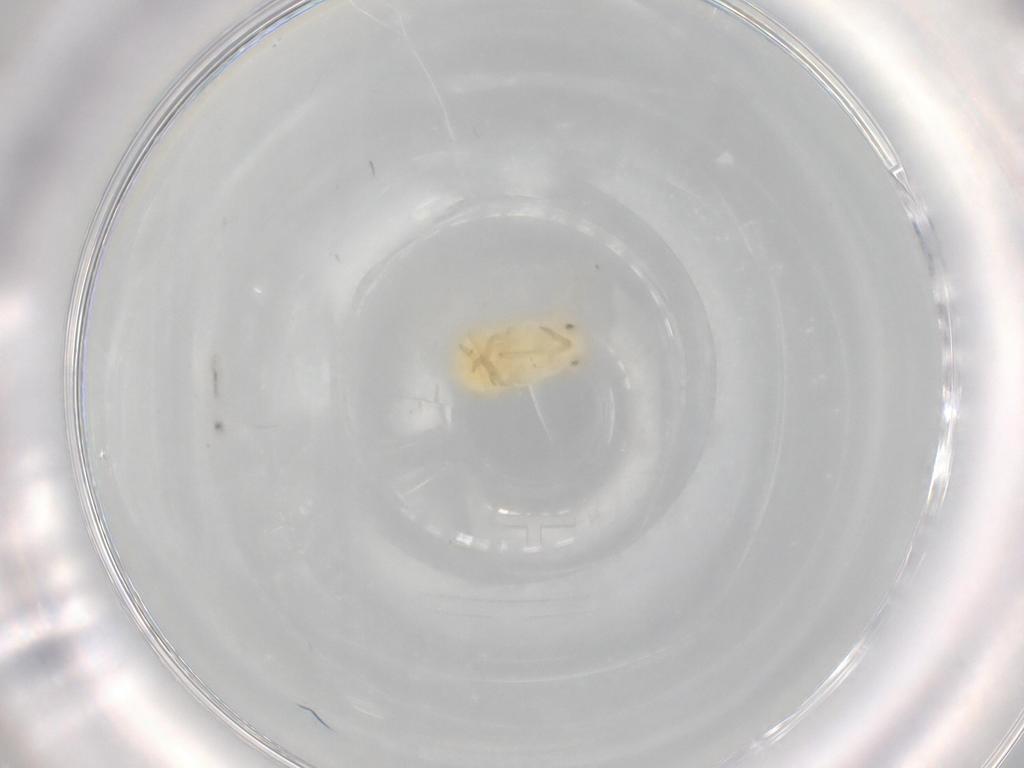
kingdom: Animalia
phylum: Arthropoda
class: Insecta
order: Hemiptera
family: Flatidae
